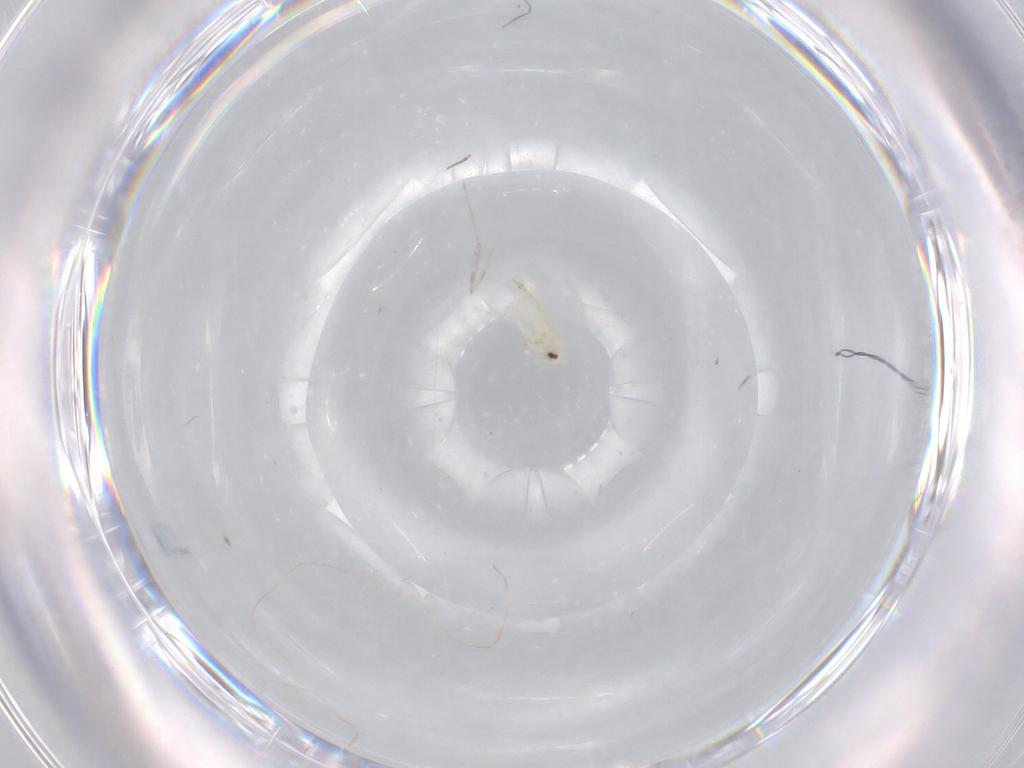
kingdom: Animalia
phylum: Arthropoda
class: Insecta
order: Hemiptera
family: Aleyrodidae
